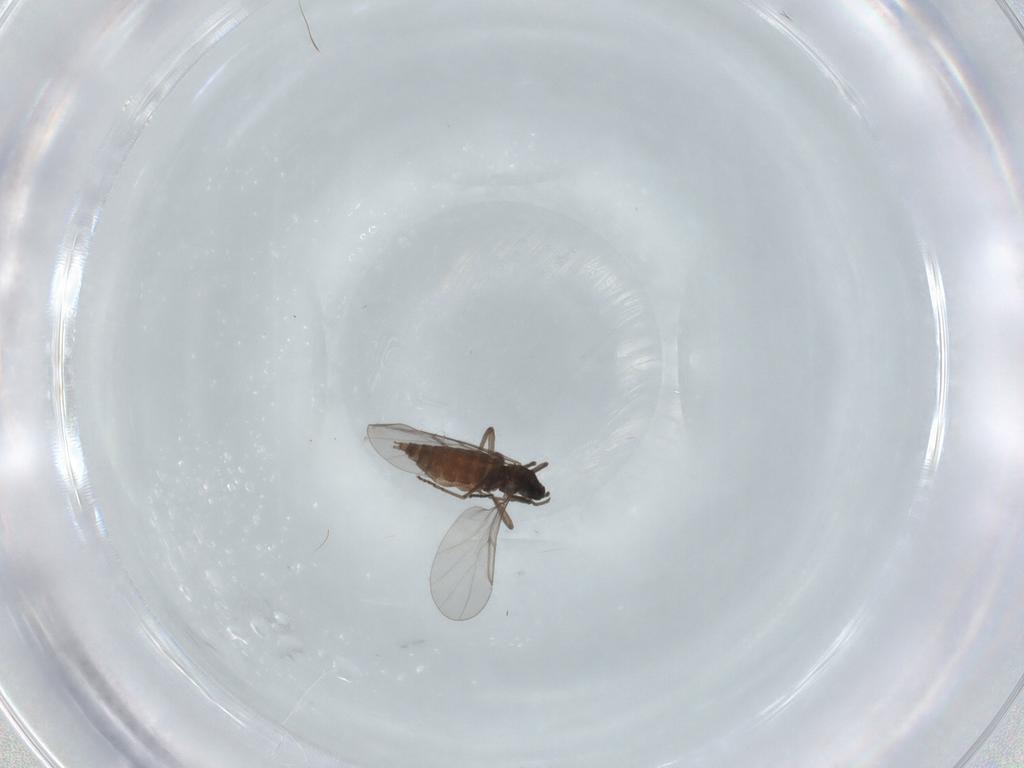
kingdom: Animalia
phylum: Arthropoda
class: Insecta
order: Diptera
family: Cecidomyiidae
